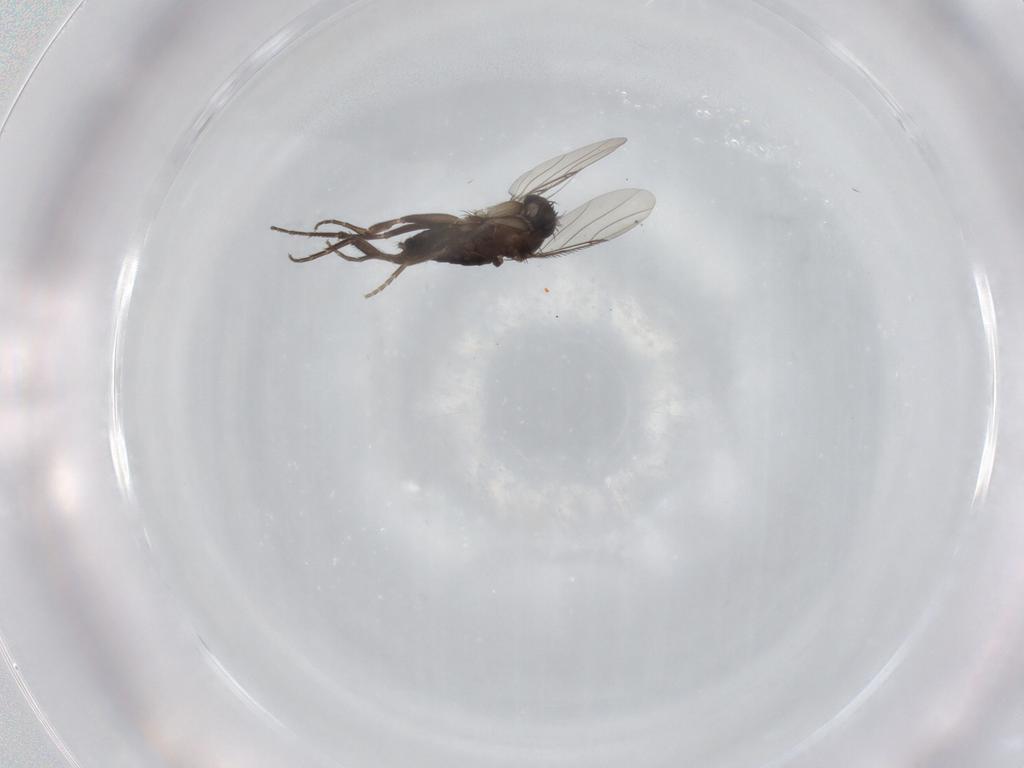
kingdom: Animalia
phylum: Arthropoda
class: Insecta
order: Diptera
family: Phoridae
